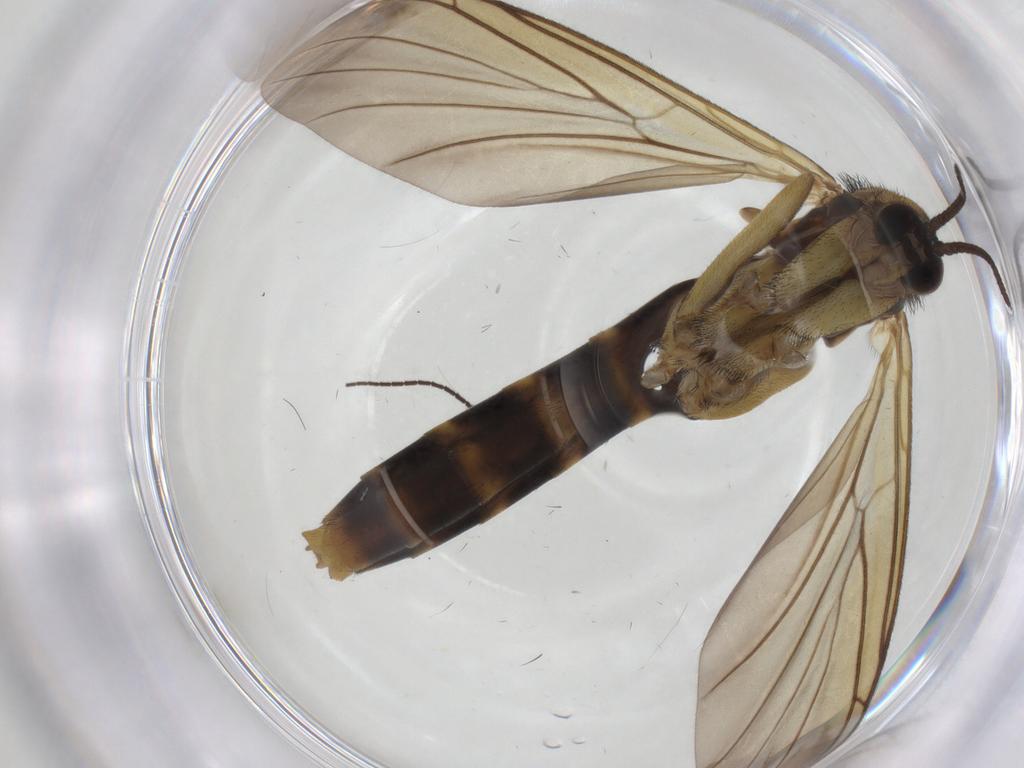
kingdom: Animalia
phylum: Arthropoda
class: Insecta
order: Diptera
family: Keroplatidae
